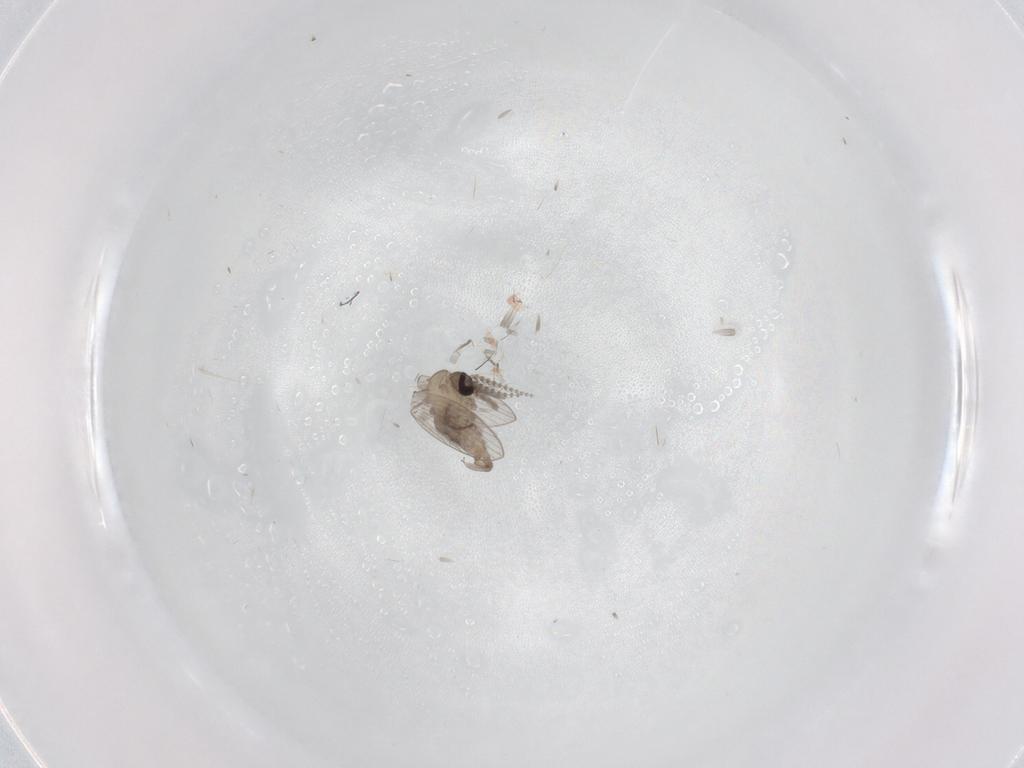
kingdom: Animalia
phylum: Arthropoda
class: Insecta
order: Diptera
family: Psychodidae
